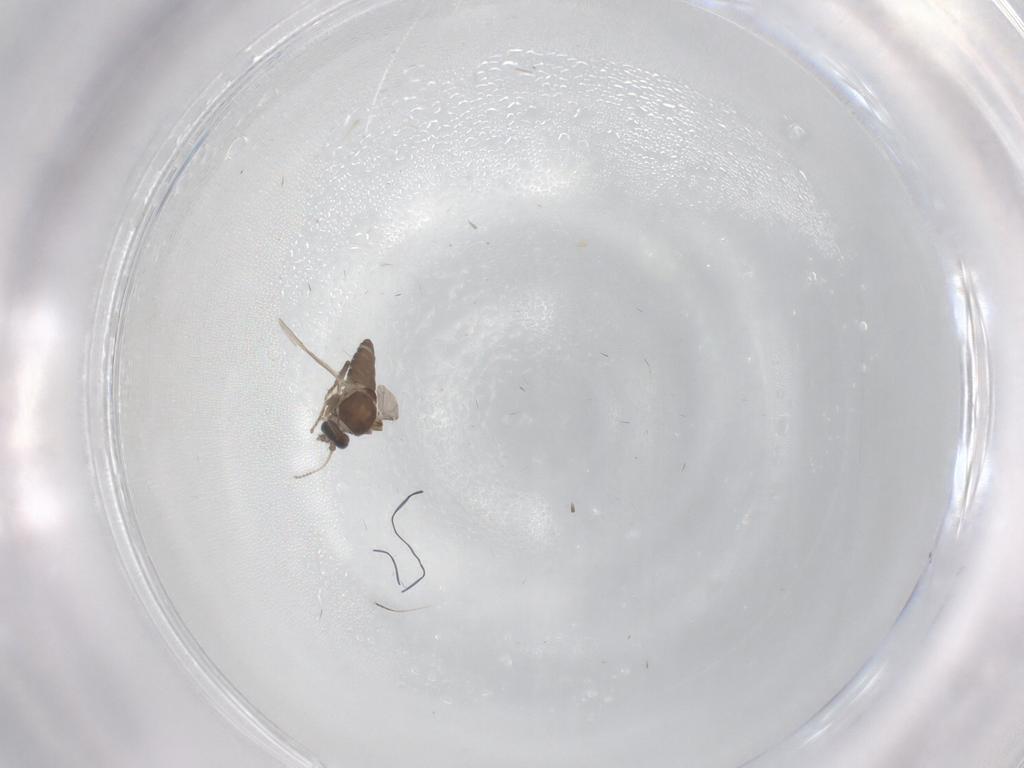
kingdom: Animalia
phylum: Arthropoda
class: Insecta
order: Diptera
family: Ceratopogonidae
